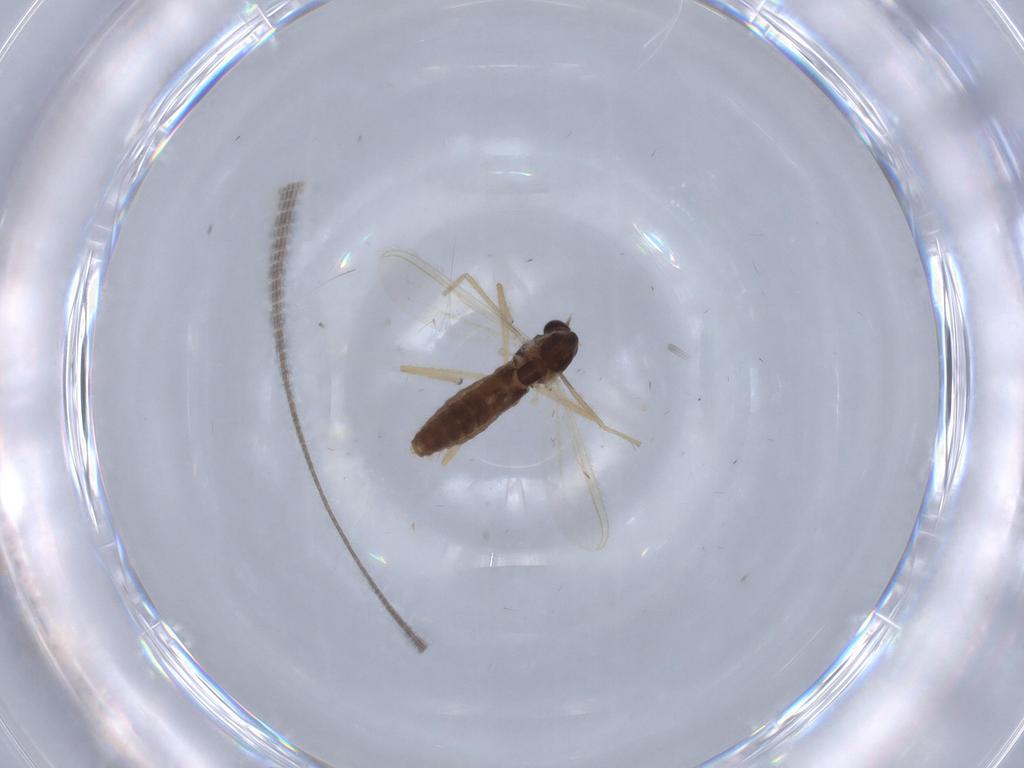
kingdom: Animalia
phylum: Arthropoda
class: Insecta
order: Diptera
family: Chironomidae
